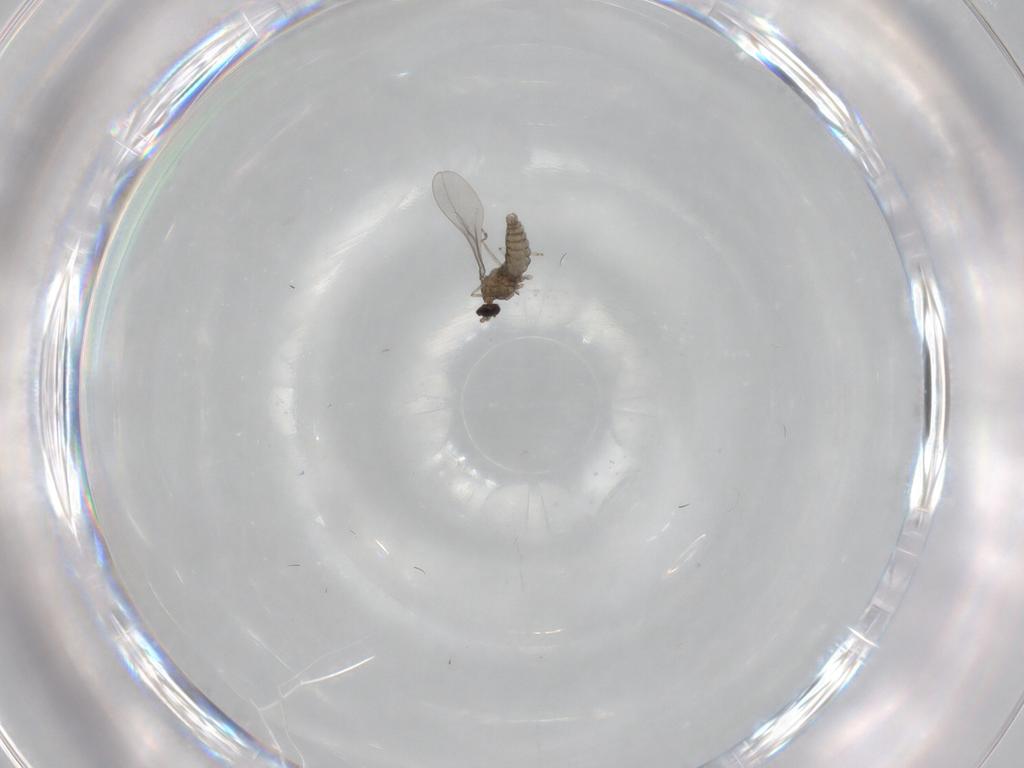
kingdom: Animalia
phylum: Arthropoda
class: Insecta
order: Diptera
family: Cecidomyiidae
